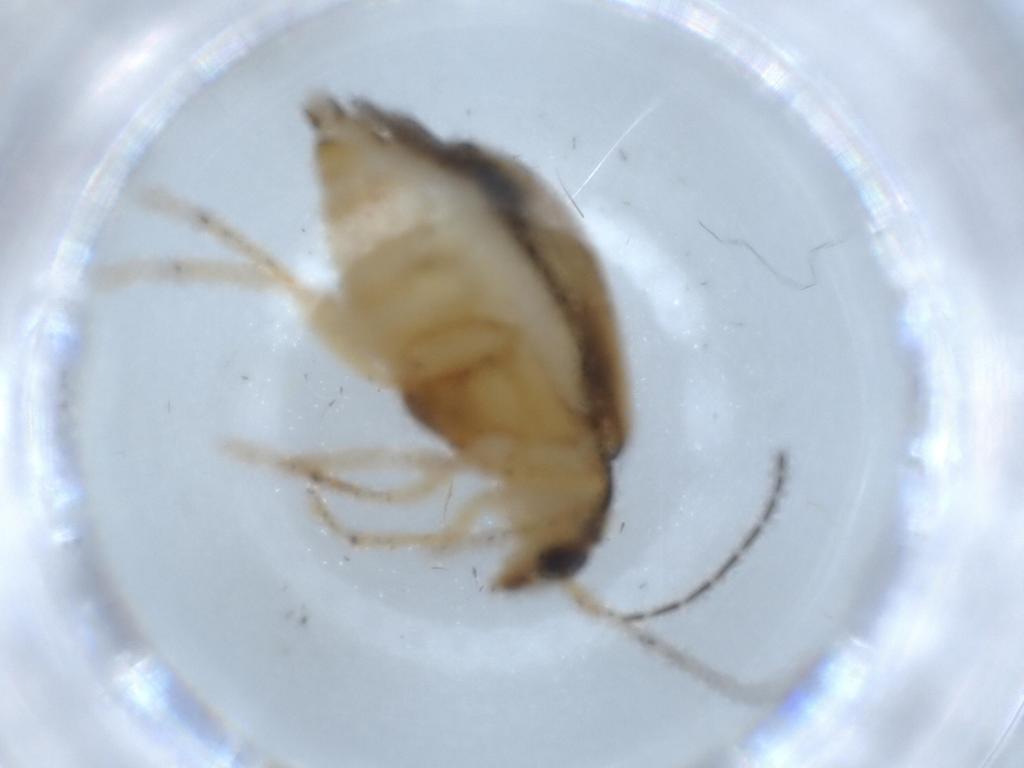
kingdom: Animalia
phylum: Arthropoda
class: Insecta
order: Coleoptera
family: Chrysomelidae
